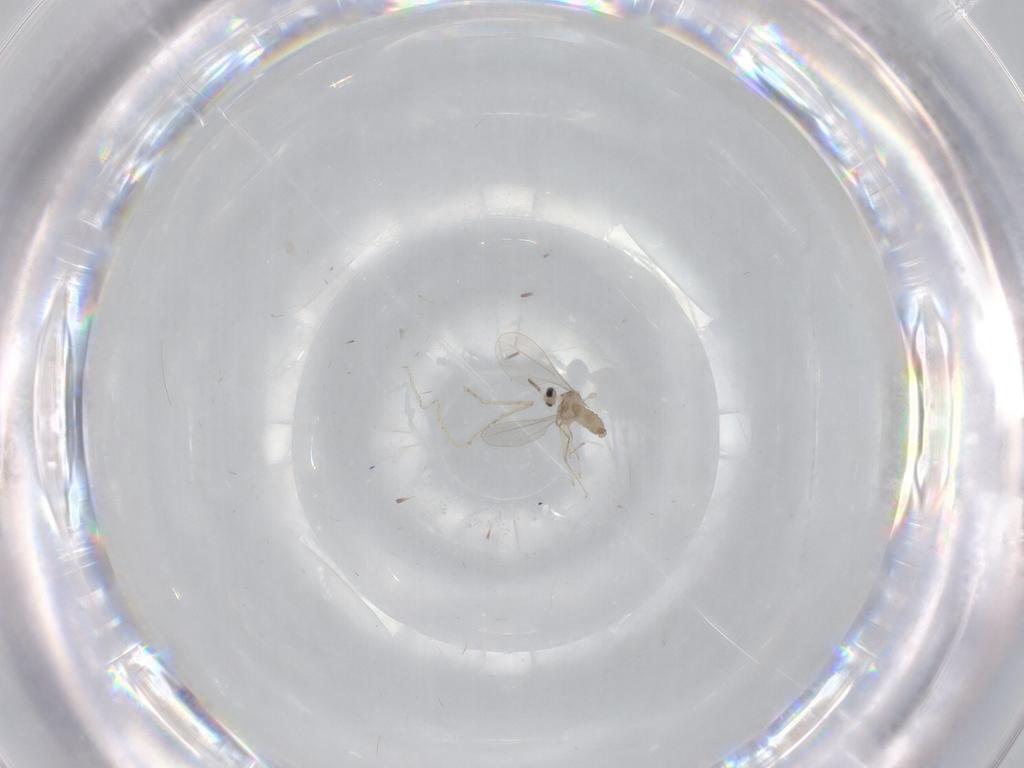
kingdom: Animalia
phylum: Arthropoda
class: Insecta
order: Diptera
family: Cecidomyiidae
